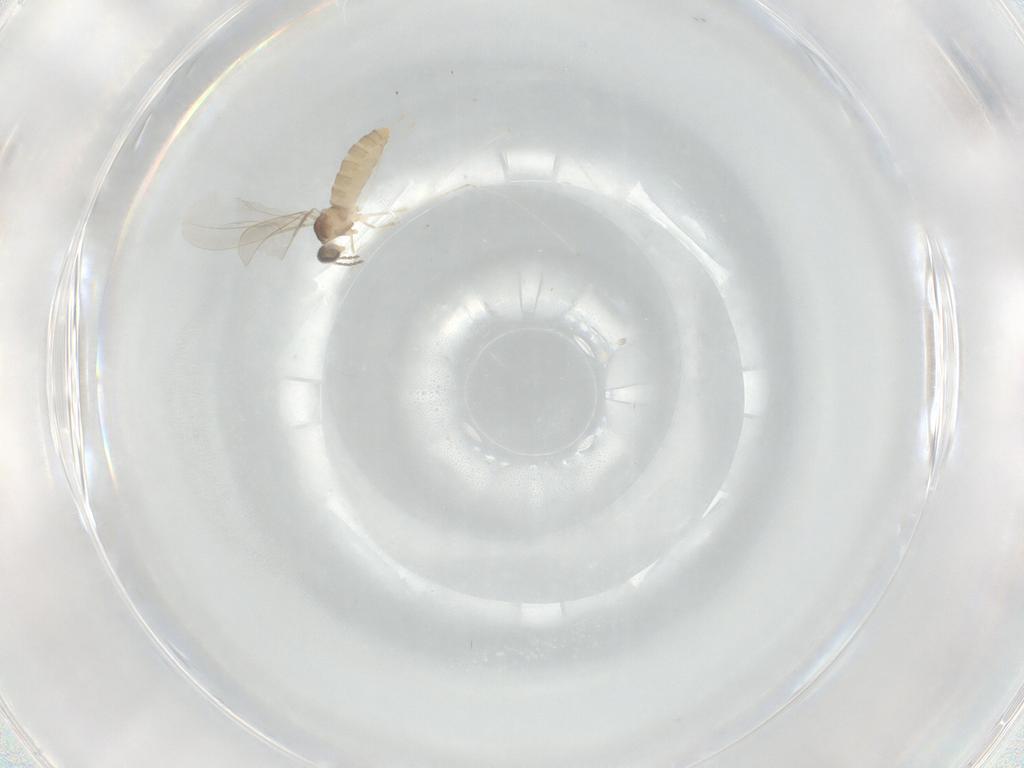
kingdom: Animalia
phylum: Arthropoda
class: Insecta
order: Diptera
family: Cecidomyiidae
